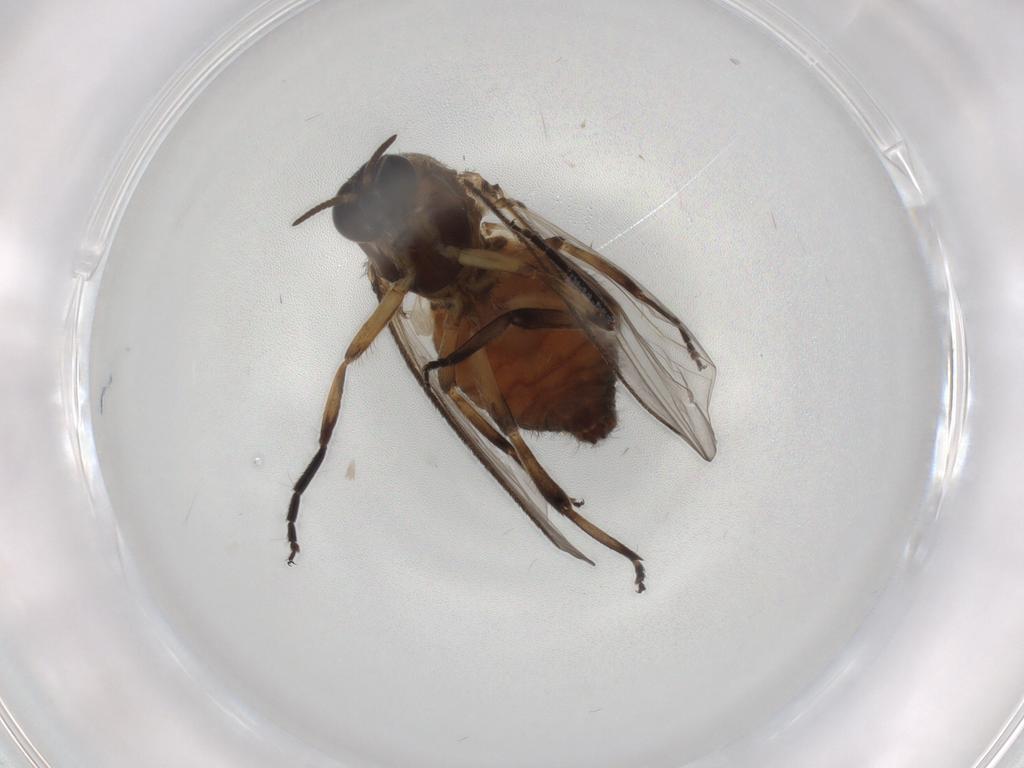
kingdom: Animalia
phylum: Arthropoda
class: Insecta
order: Diptera
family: Simuliidae
